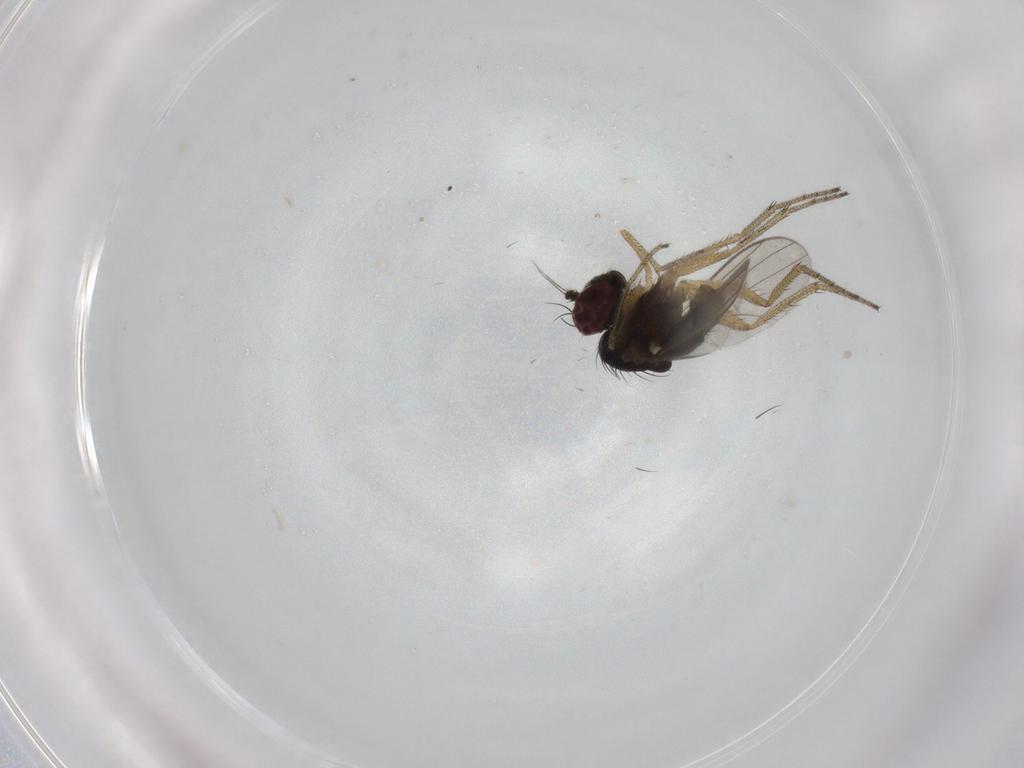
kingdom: Animalia
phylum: Arthropoda
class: Insecta
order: Diptera
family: Dolichopodidae
